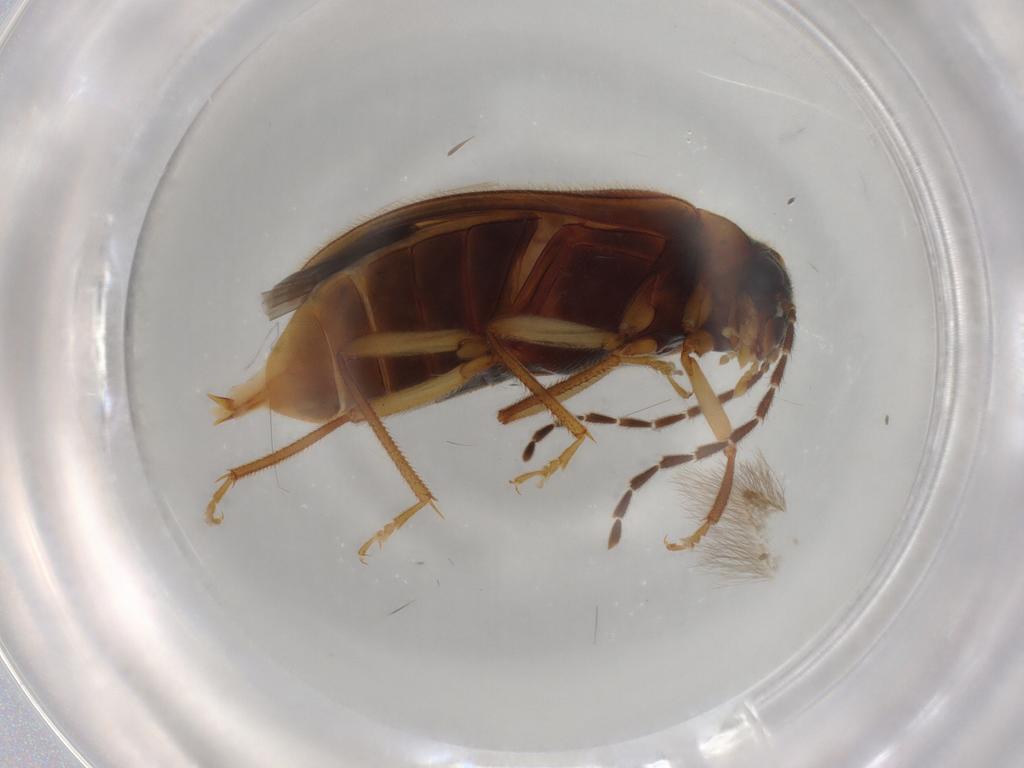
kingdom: Animalia
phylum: Arthropoda
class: Insecta
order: Coleoptera
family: Ptilodactylidae
